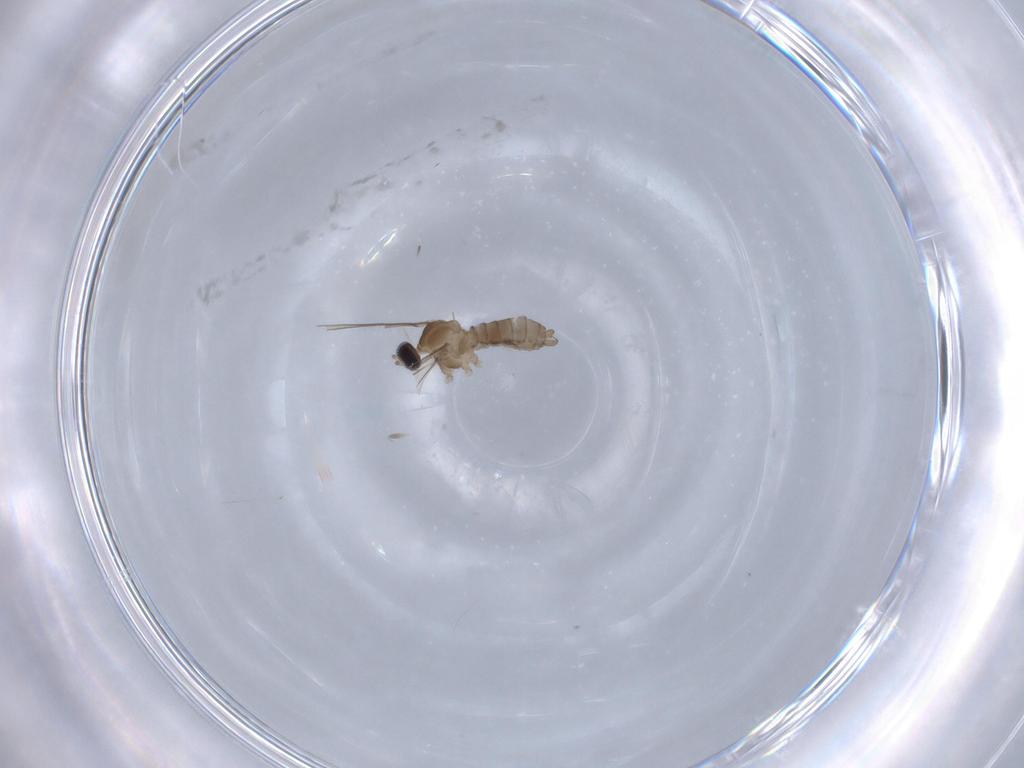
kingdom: Animalia
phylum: Arthropoda
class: Insecta
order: Diptera
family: Cecidomyiidae
